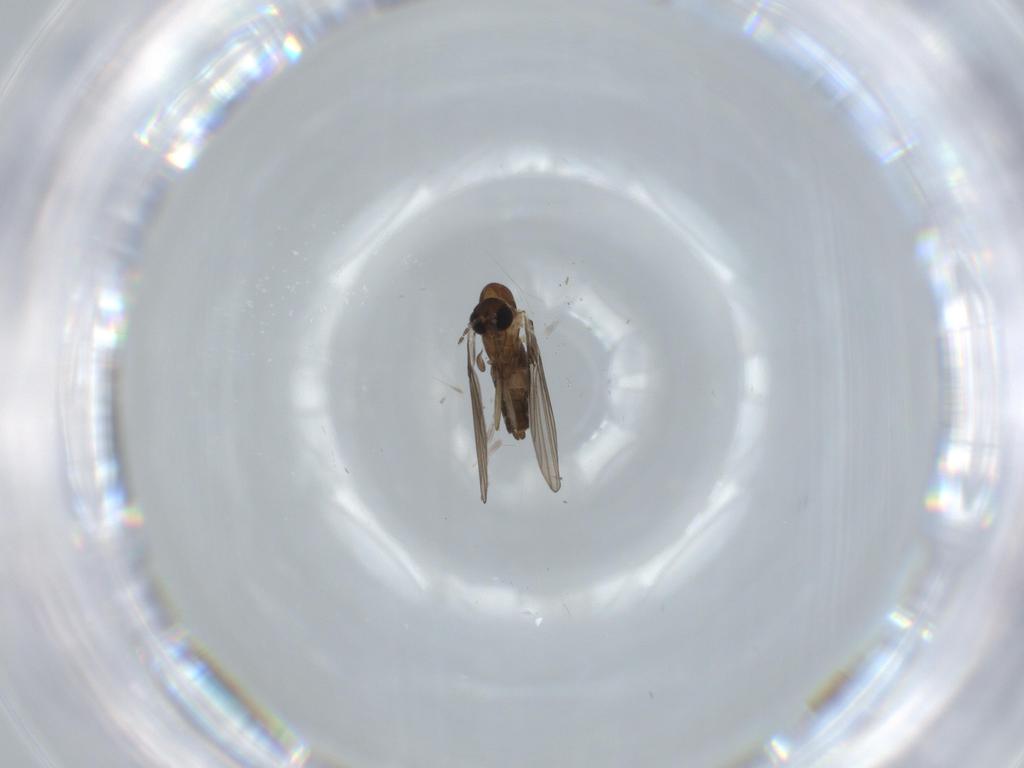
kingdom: Animalia
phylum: Arthropoda
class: Insecta
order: Diptera
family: Psychodidae
